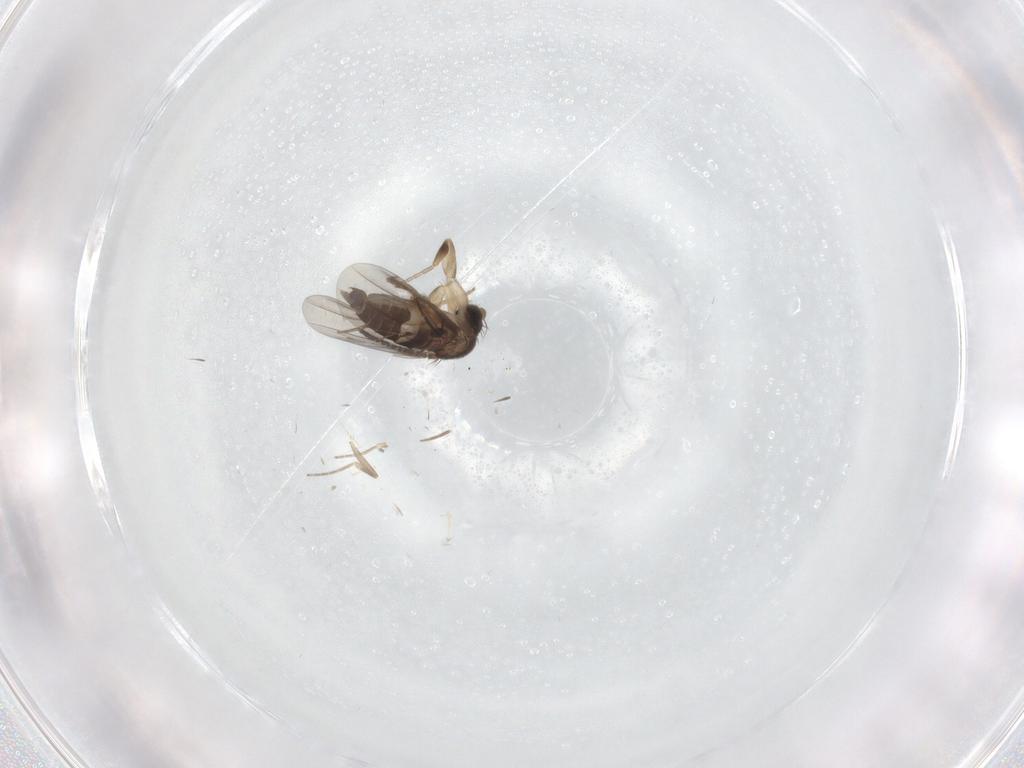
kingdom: Animalia
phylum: Arthropoda
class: Insecta
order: Diptera
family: Phoridae
